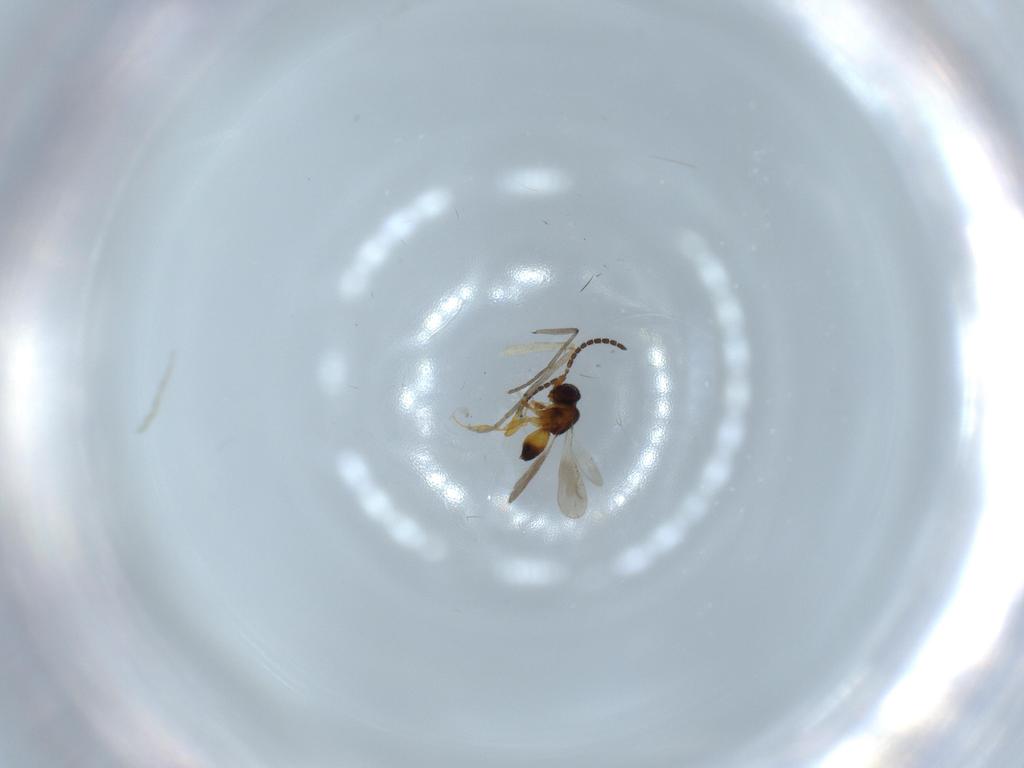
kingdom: Animalia
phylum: Arthropoda
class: Insecta
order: Hymenoptera
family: Ceraphronidae
